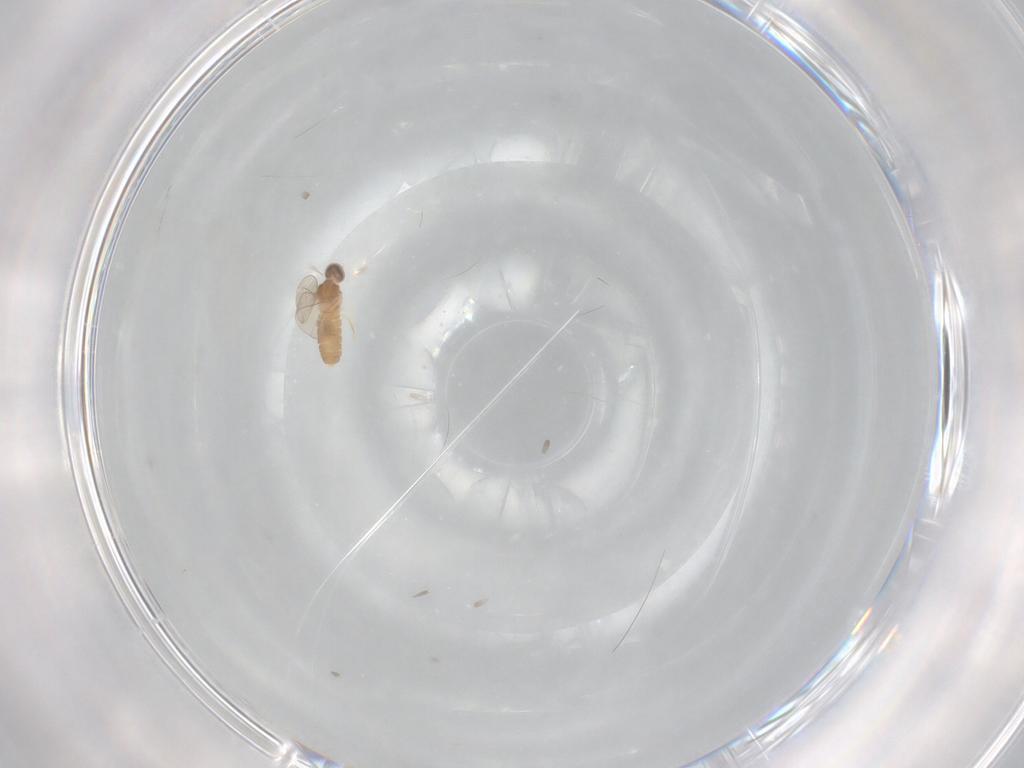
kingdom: Animalia
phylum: Arthropoda
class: Insecta
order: Diptera
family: Cecidomyiidae
